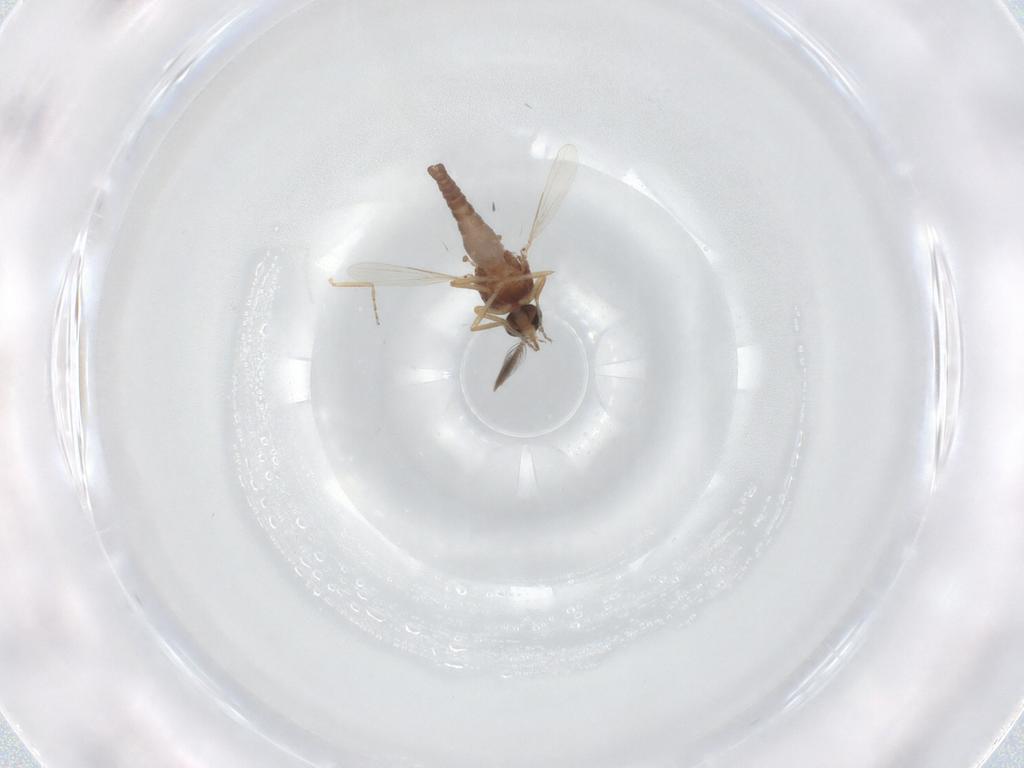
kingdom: Animalia
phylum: Arthropoda
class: Insecta
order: Diptera
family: Ceratopogonidae
